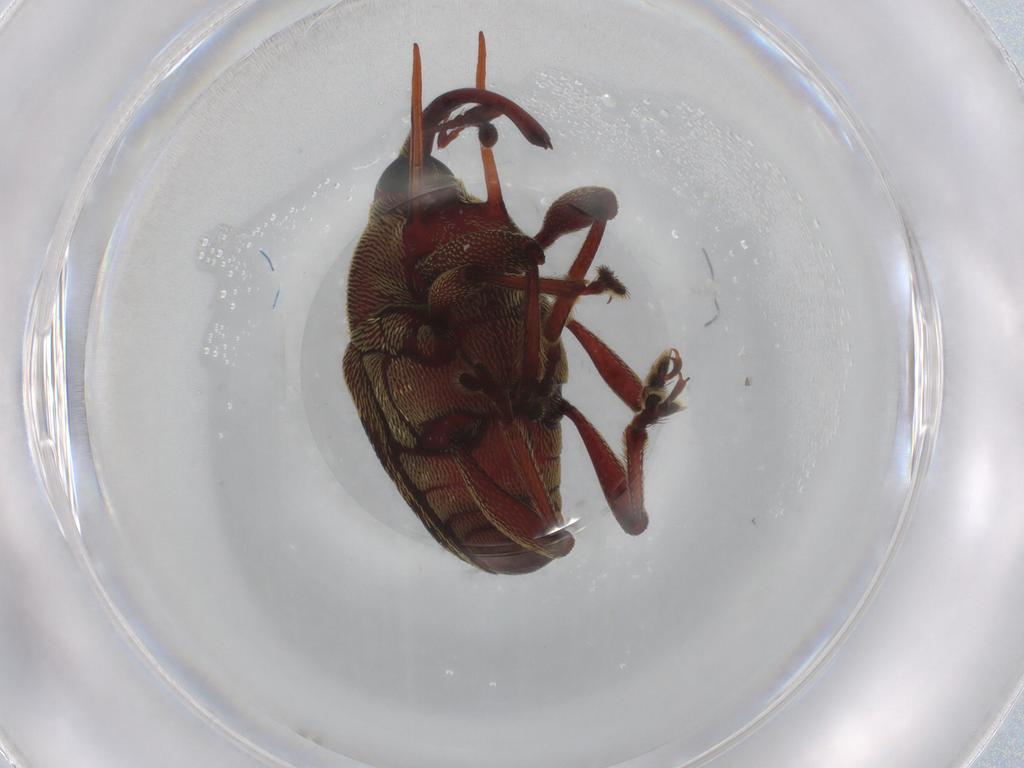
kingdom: Animalia
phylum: Arthropoda
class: Insecta
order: Coleoptera
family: Curculionidae
